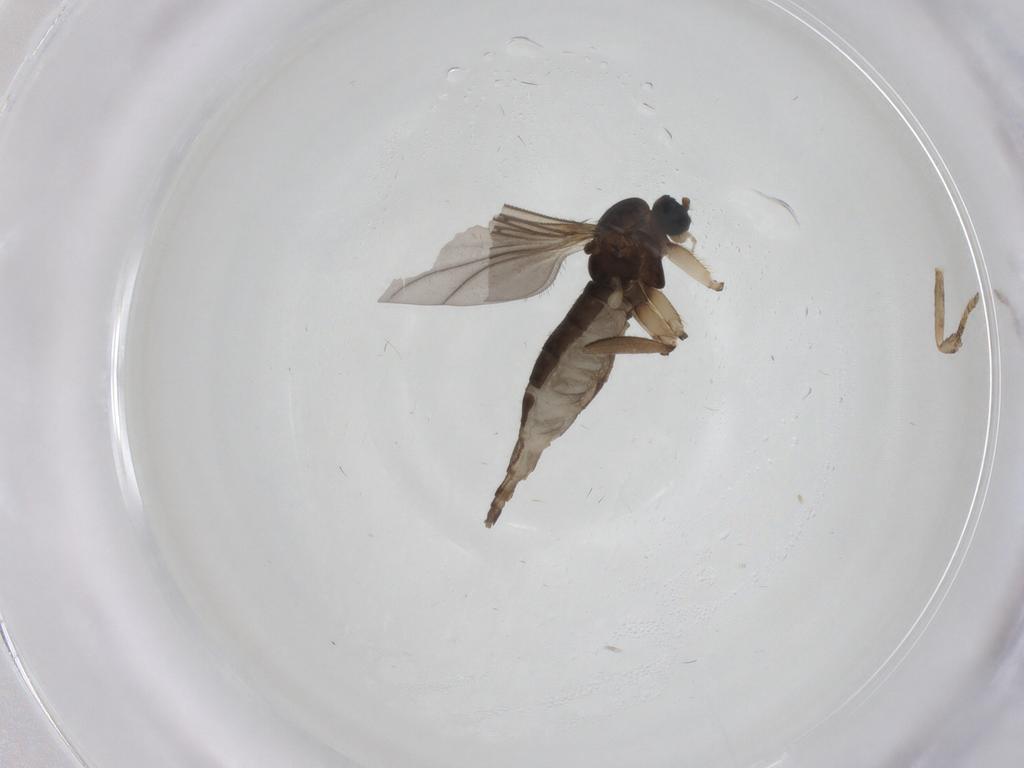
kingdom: Animalia
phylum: Arthropoda
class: Insecta
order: Diptera
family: Sciaridae
